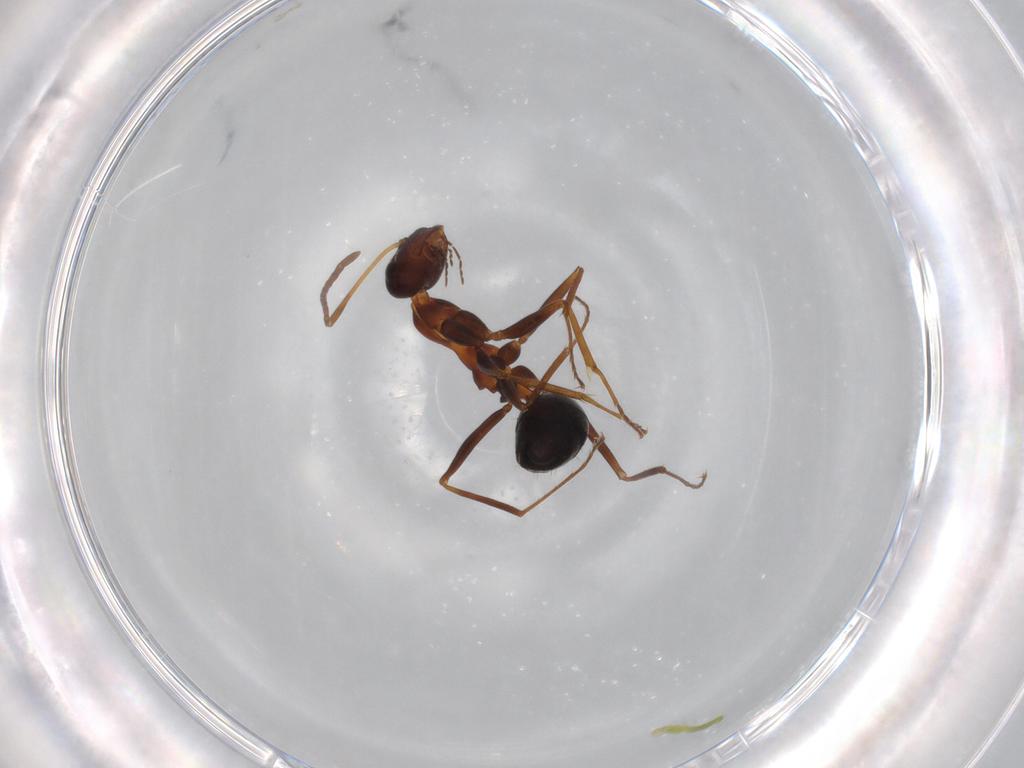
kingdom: Animalia
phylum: Arthropoda
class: Insecta
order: Hymenoptera
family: Formicidae
